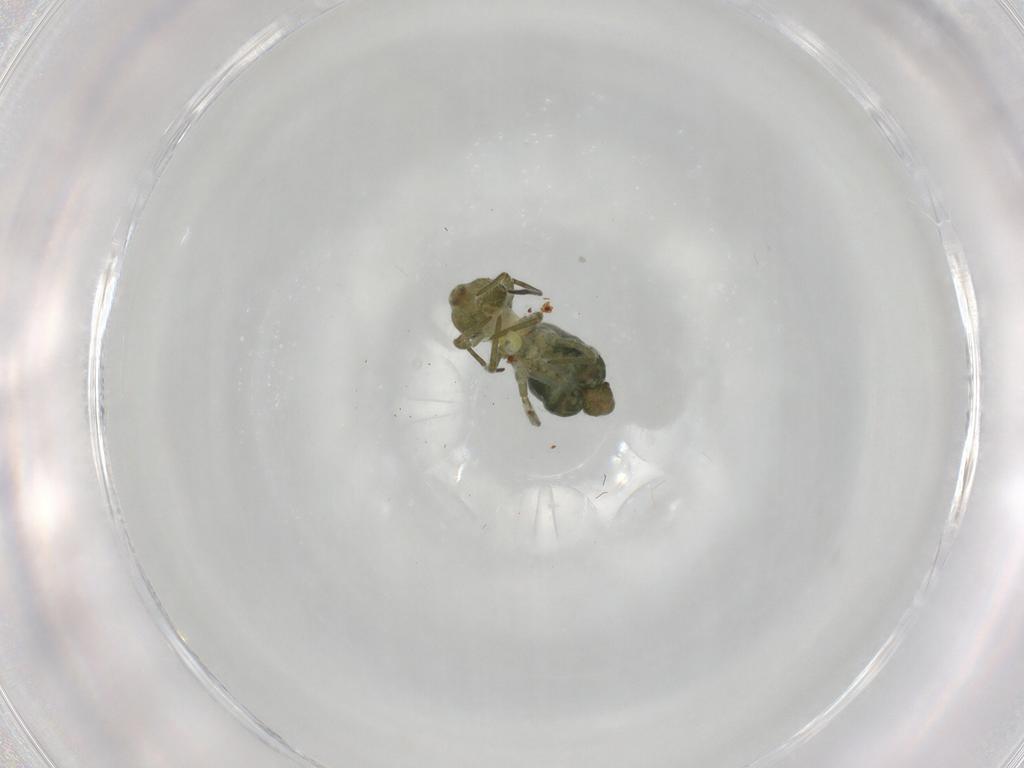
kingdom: Animalia
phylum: Arthropoda
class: Collembola
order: Symphypleona
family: Sminthuridae
